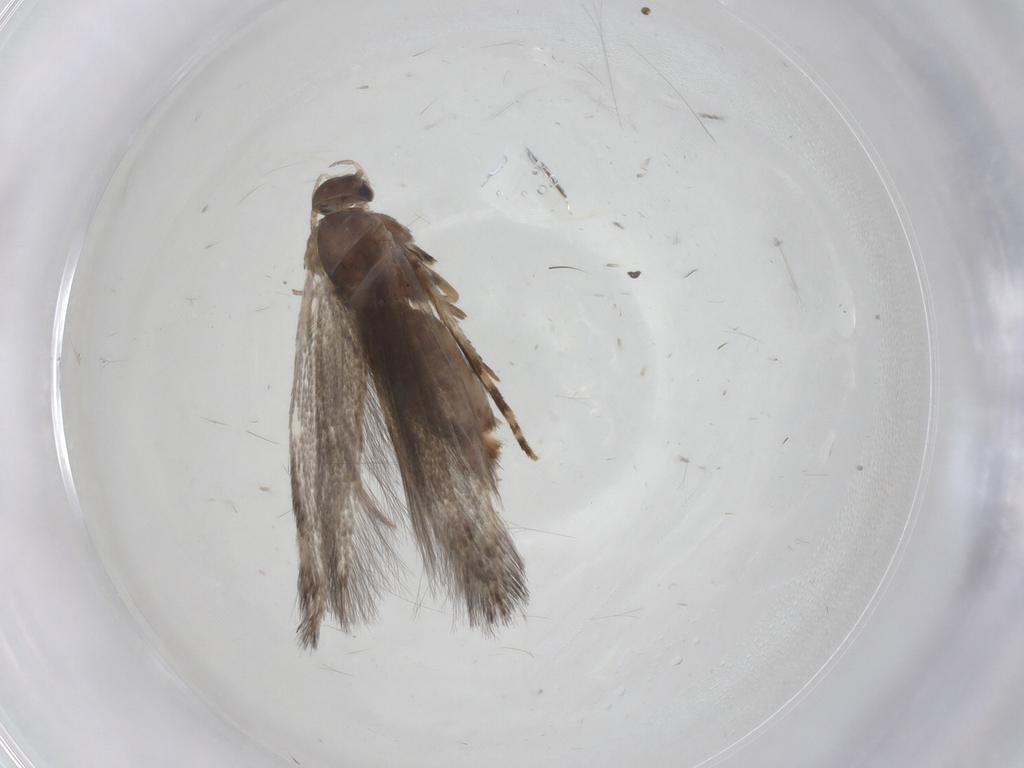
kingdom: Animalia
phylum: Arthropoda
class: Insecta
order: Lepidoptera
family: Elachistidae
